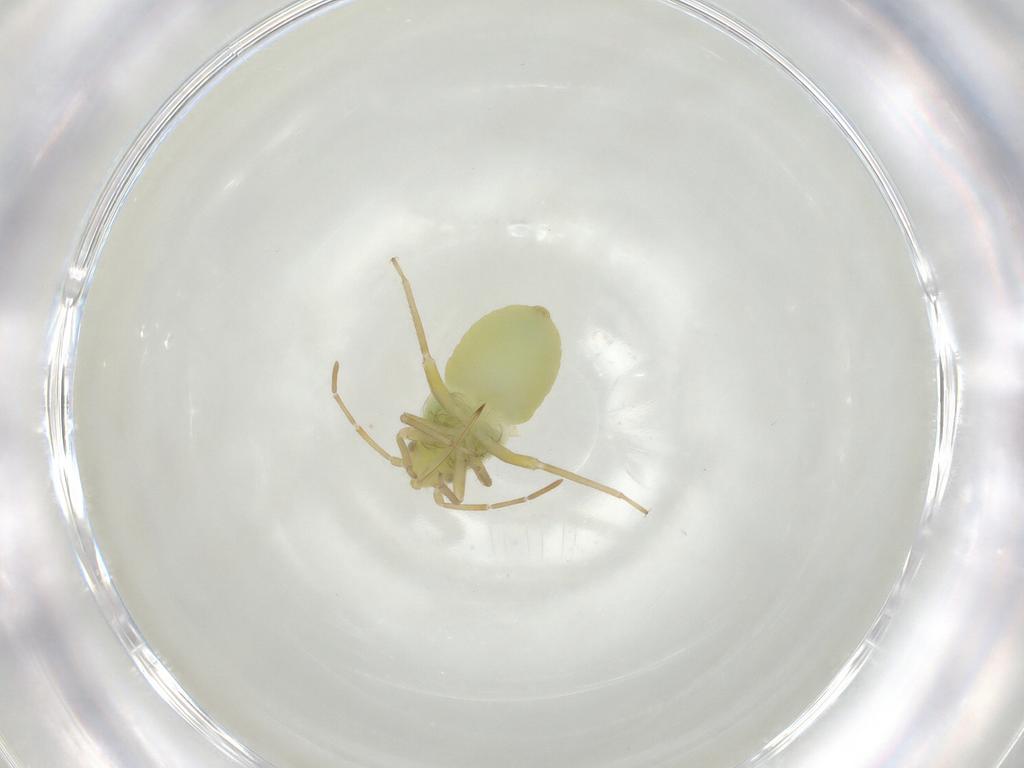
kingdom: Animalia
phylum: Arthropoda
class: Insecta
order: Hemiptera
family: Miridae
